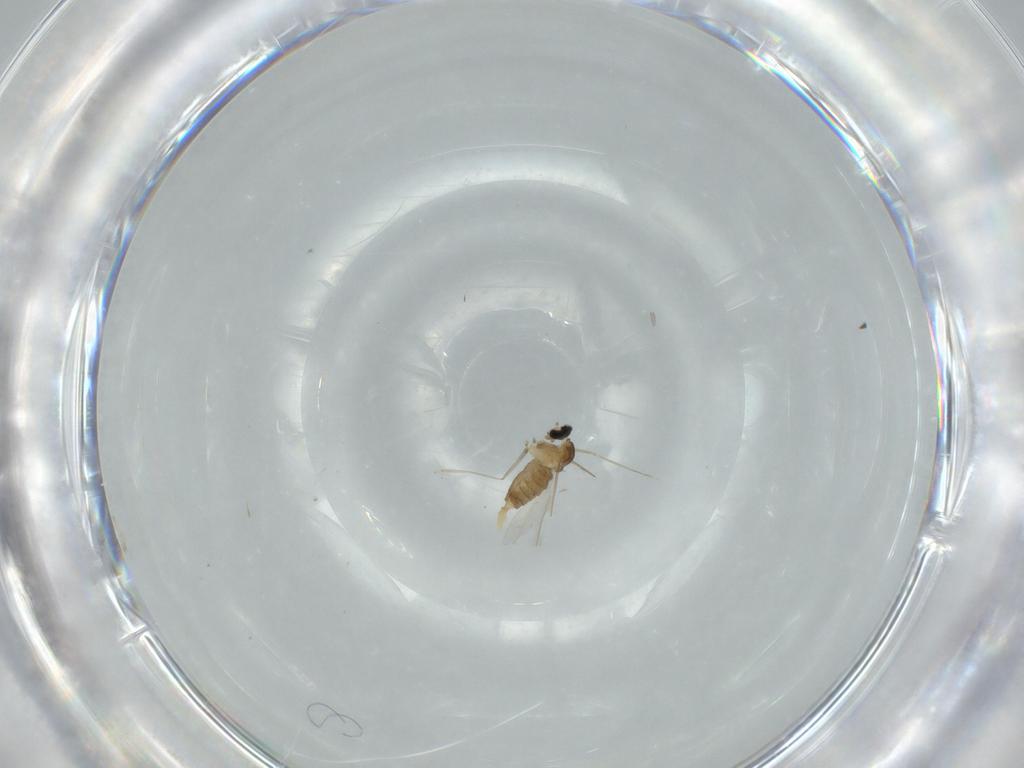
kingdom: Animalia
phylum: Arthropoda
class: Insecta
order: Diptera
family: Cecidomyiidae
